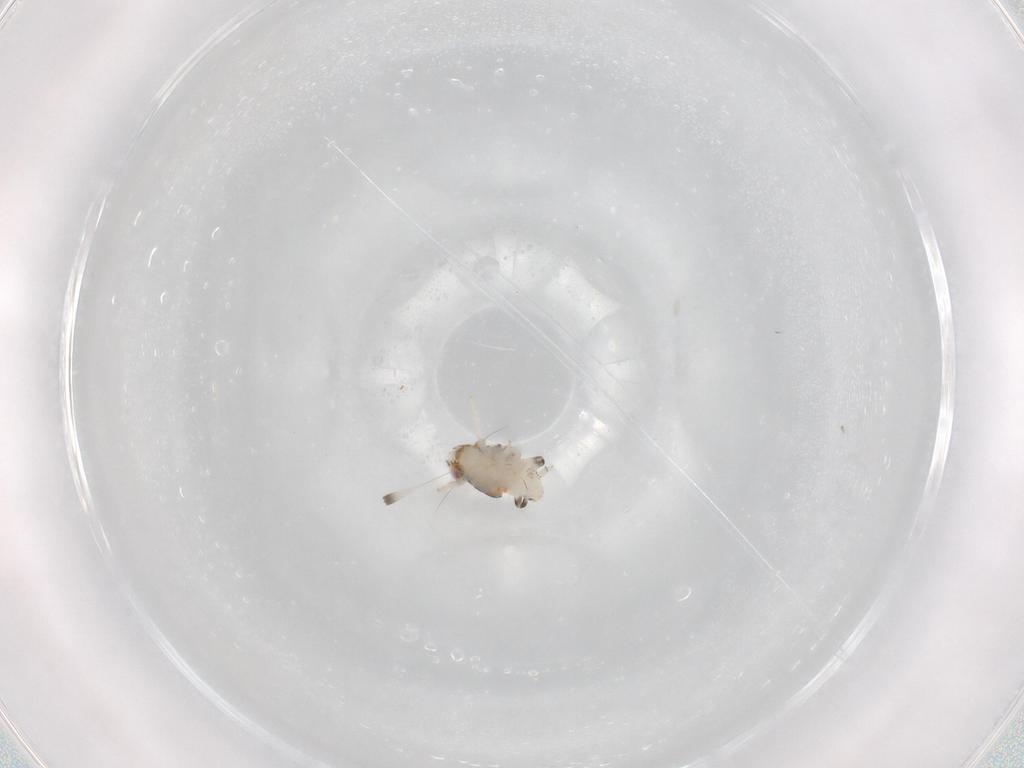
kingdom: Animalia
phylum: Arthropoda
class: Insecta
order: Psocodea
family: Ptiloneuridae
